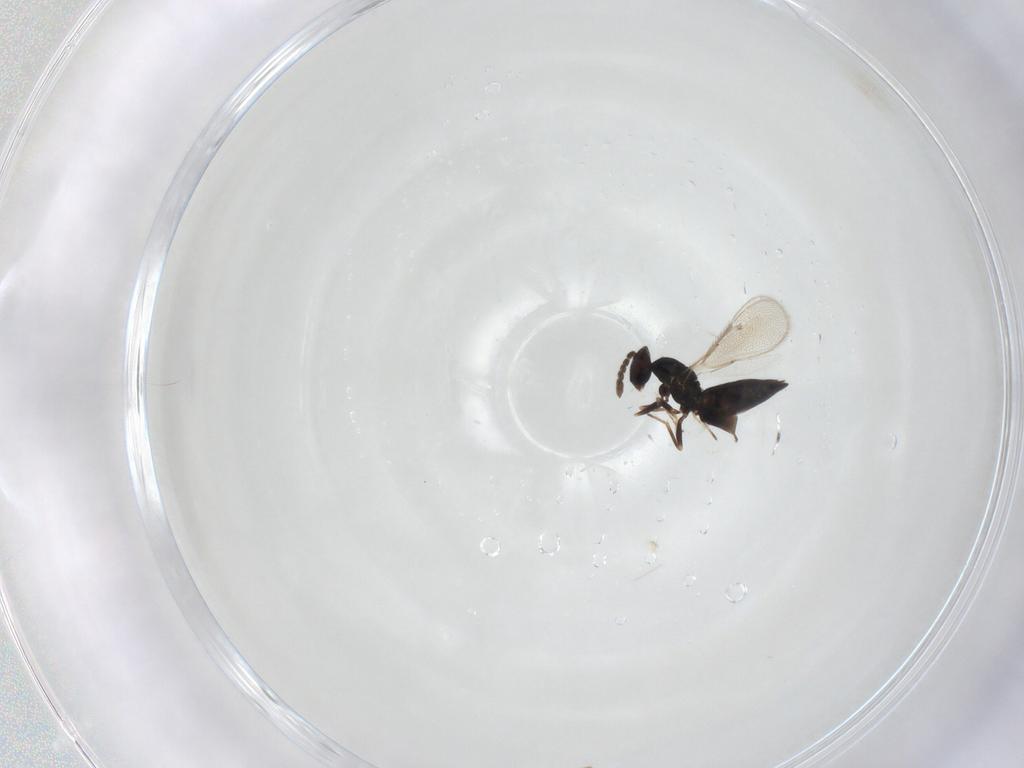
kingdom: Animalia
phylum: Arthropoda
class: Insecta
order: Hymenoptera
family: Eulophidae
